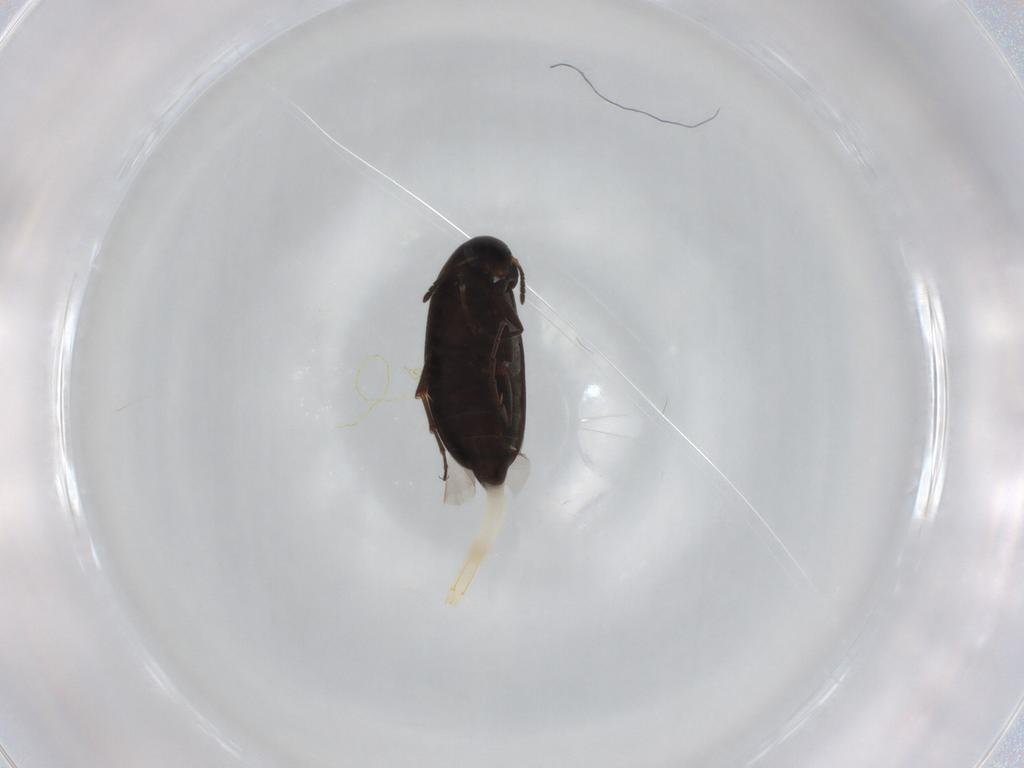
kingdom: Animalia
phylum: Arthropoda
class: Insecta
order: Coleoptera
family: Scraptiidae
